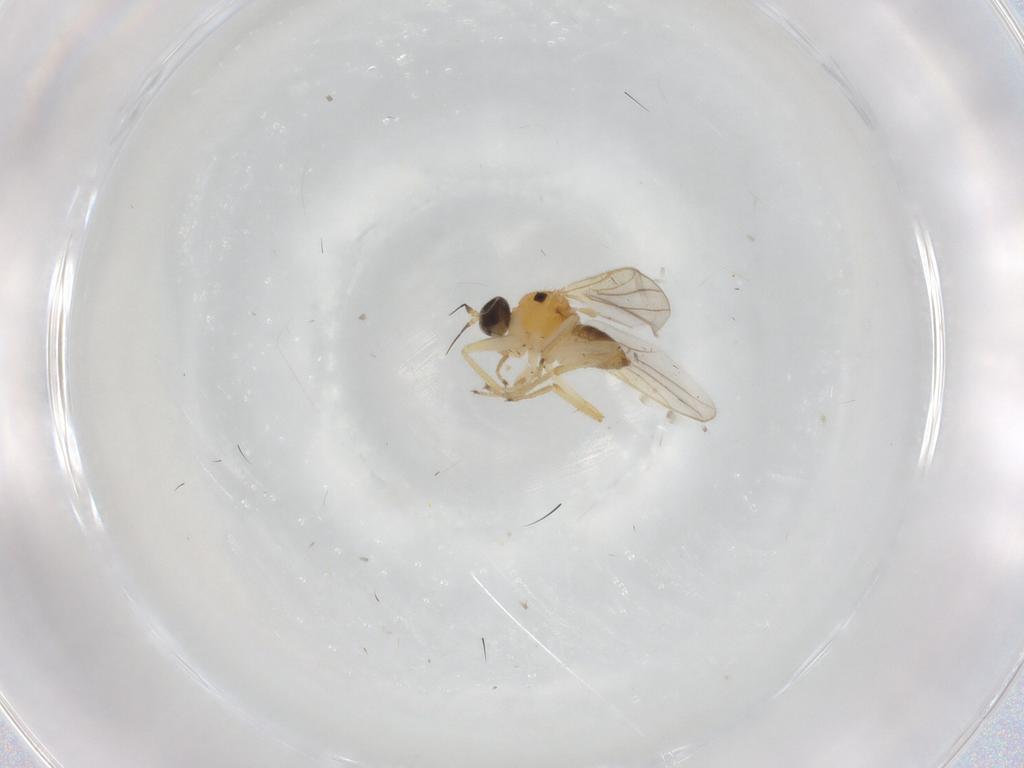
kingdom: Animalia
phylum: Arthropoda
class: Insecta
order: Diptera
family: Hybotidae
